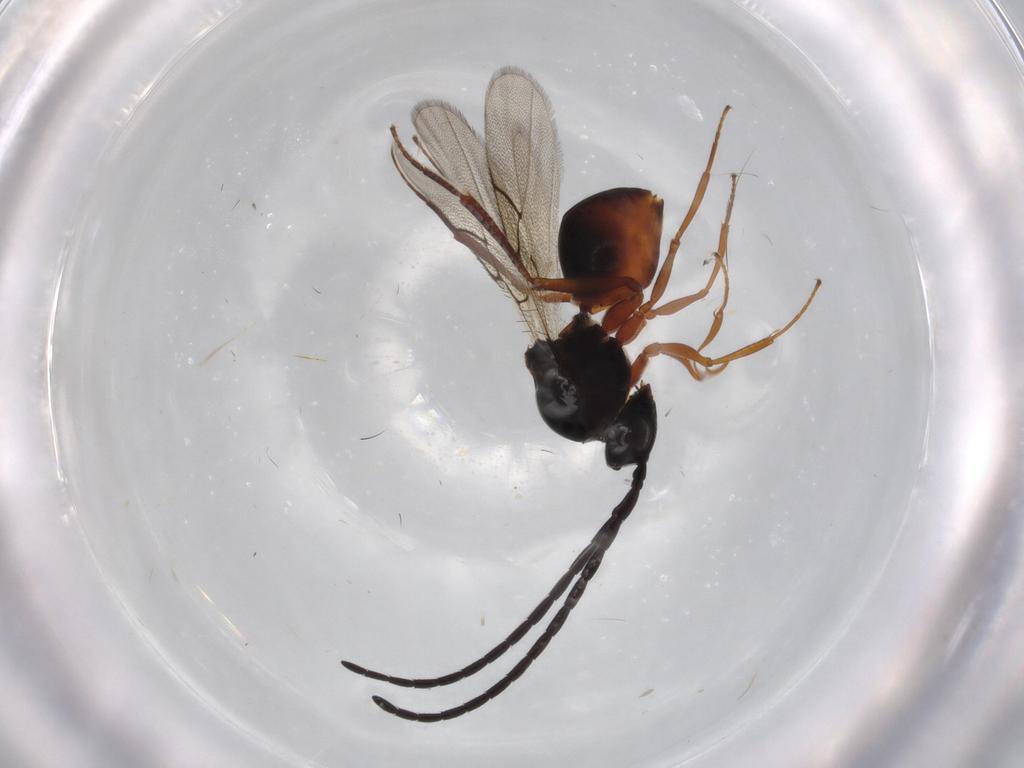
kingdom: Animalia
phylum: Arthropoda
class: Insecta
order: Hymenoptera
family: Figitidae
